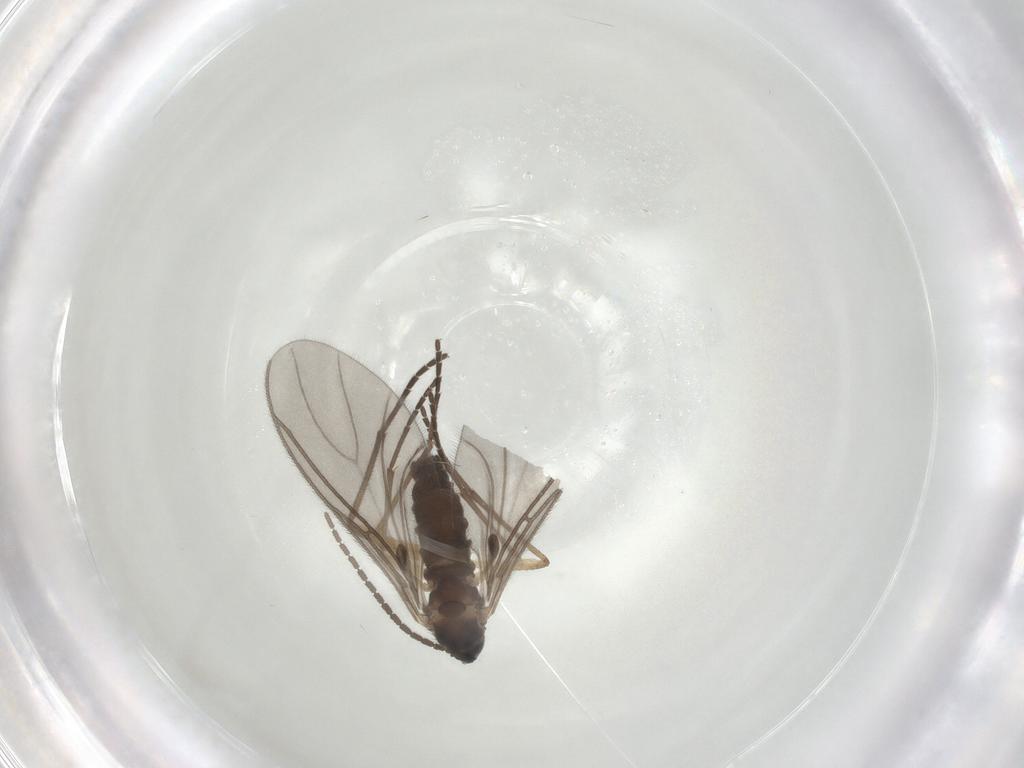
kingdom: Animalia
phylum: Arthropoda
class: Insecta
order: Diptera
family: Sciaridae
